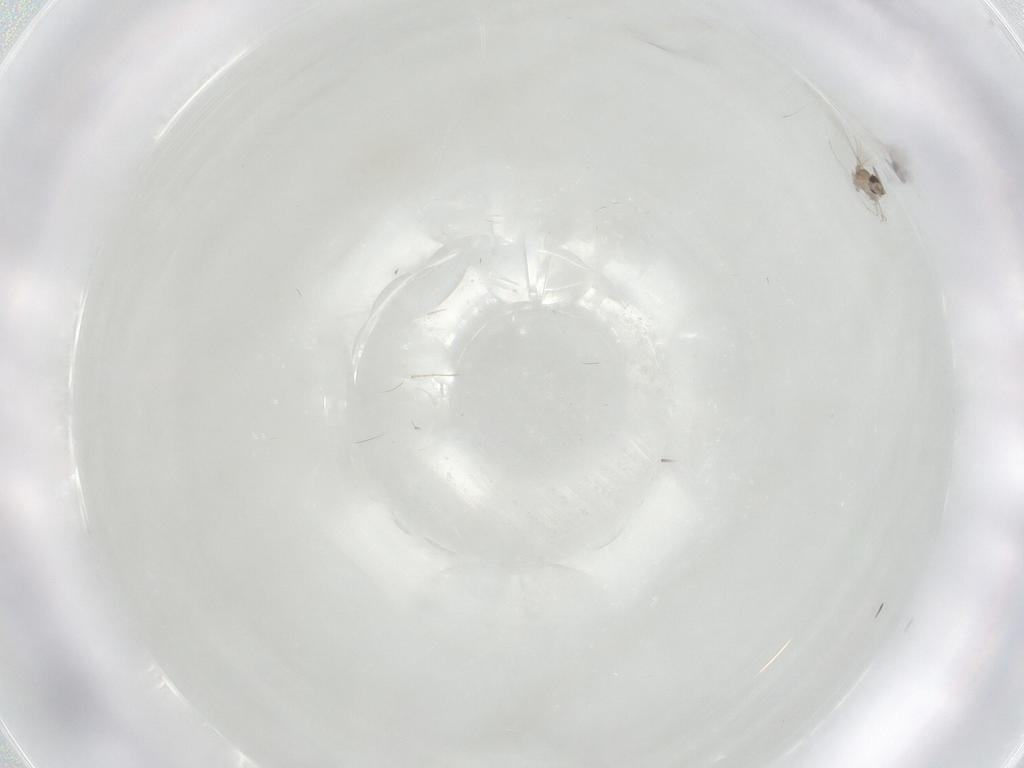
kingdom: Animalia
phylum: Arthropoda
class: Insecta
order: Diptera
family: Cecidomyiidae
